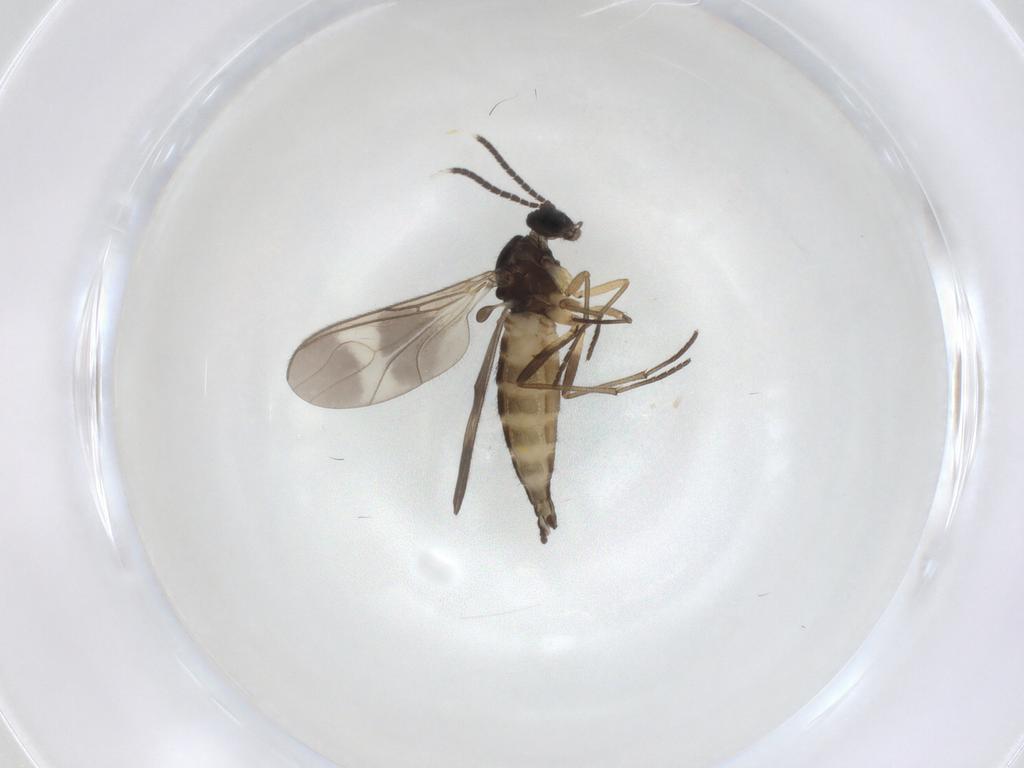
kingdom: Animalia
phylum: Arthropoda
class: Insecta
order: Diptera
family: Sciaridae
